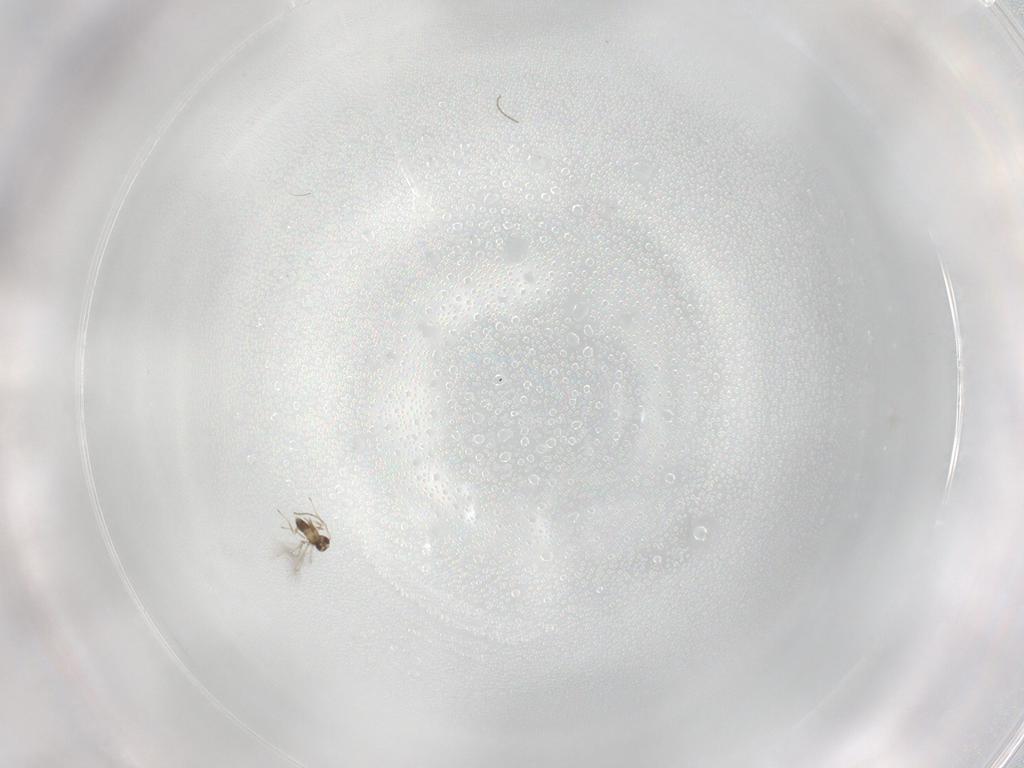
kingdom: Animalia
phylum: Arthropoda
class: Insecta
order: Hymenoptera
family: Mymaridae
